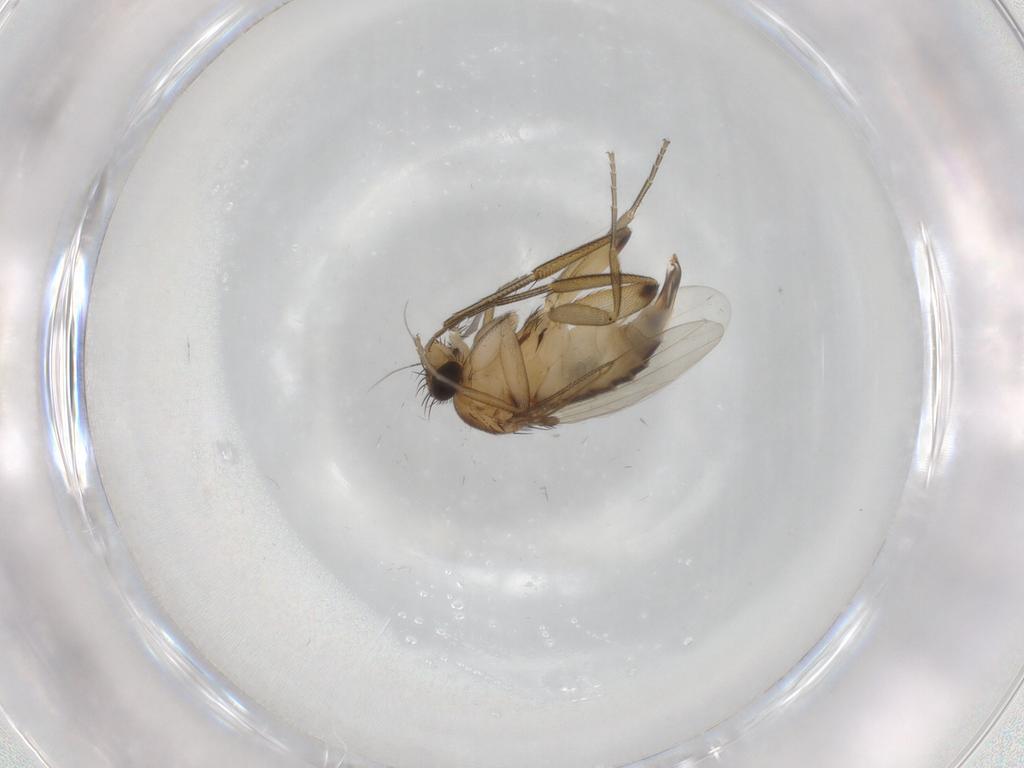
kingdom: Animalia
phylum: Arthropoda
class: Insecta
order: Diptera
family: Phoridae
